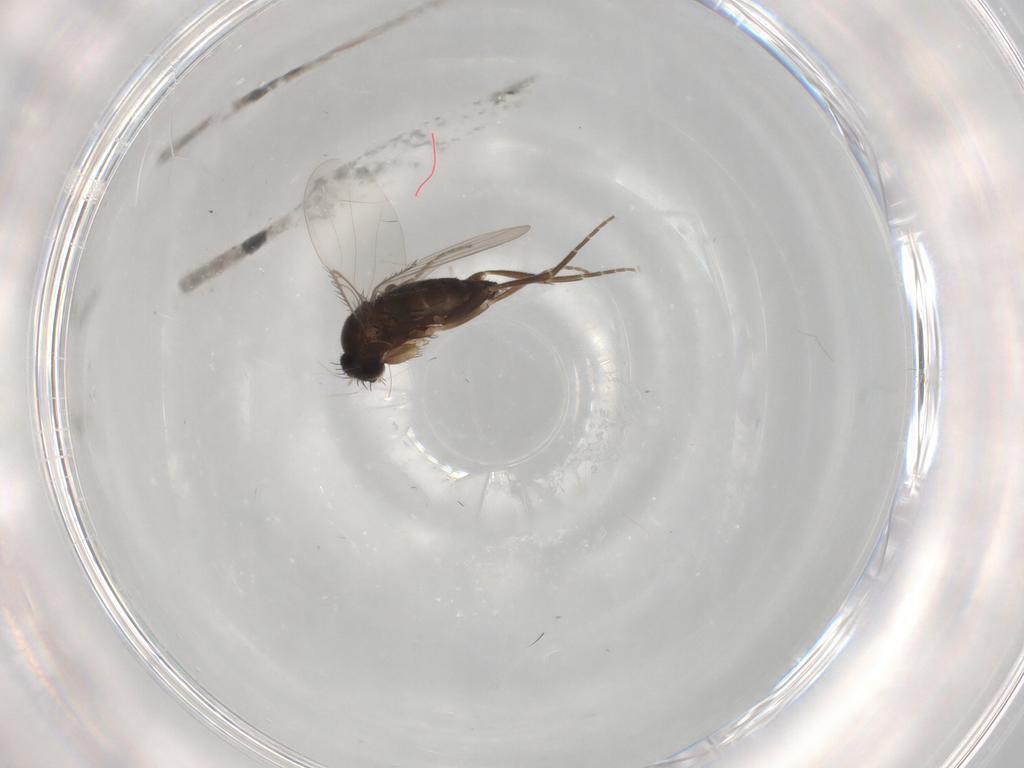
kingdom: Animalia
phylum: Arthropoda
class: Insecta
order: Diptera
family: Phoridae
